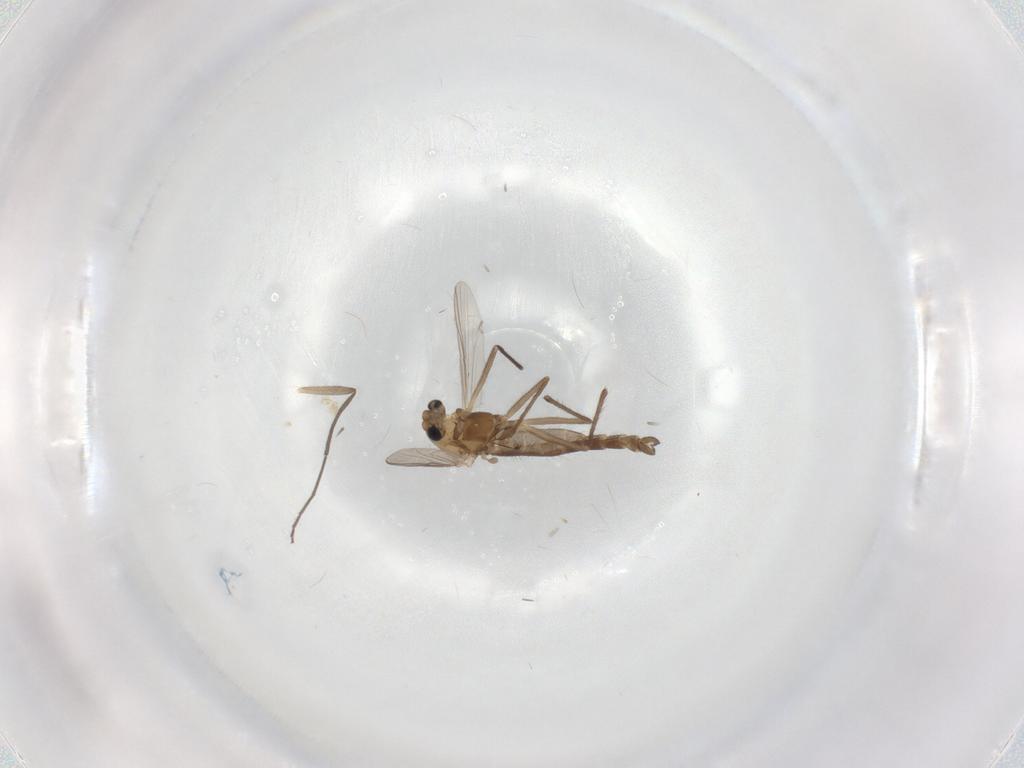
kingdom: Animalia
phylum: Arthropoda
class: Insecta
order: Diptera
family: Chironomidae
